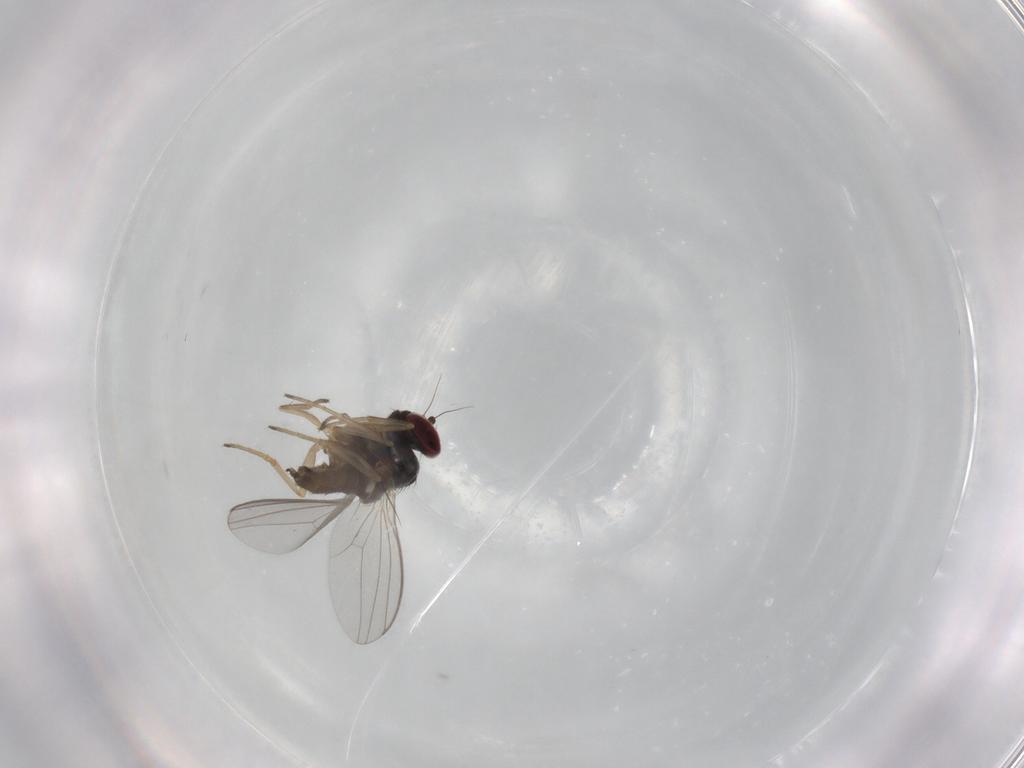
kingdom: Animalia
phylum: Arthropoda
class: Insecta
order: Diptera
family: Dolichopodidae
